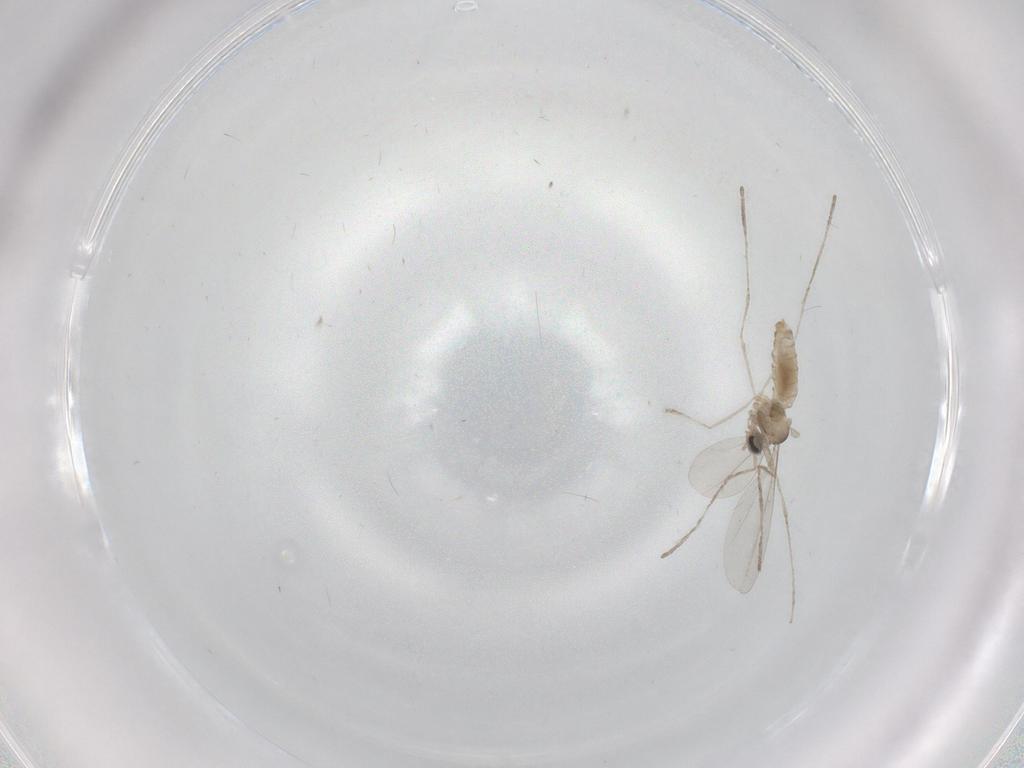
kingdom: Animalia
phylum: Arthropoda
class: Insecta
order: Diptera
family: Cecidomyiidae
